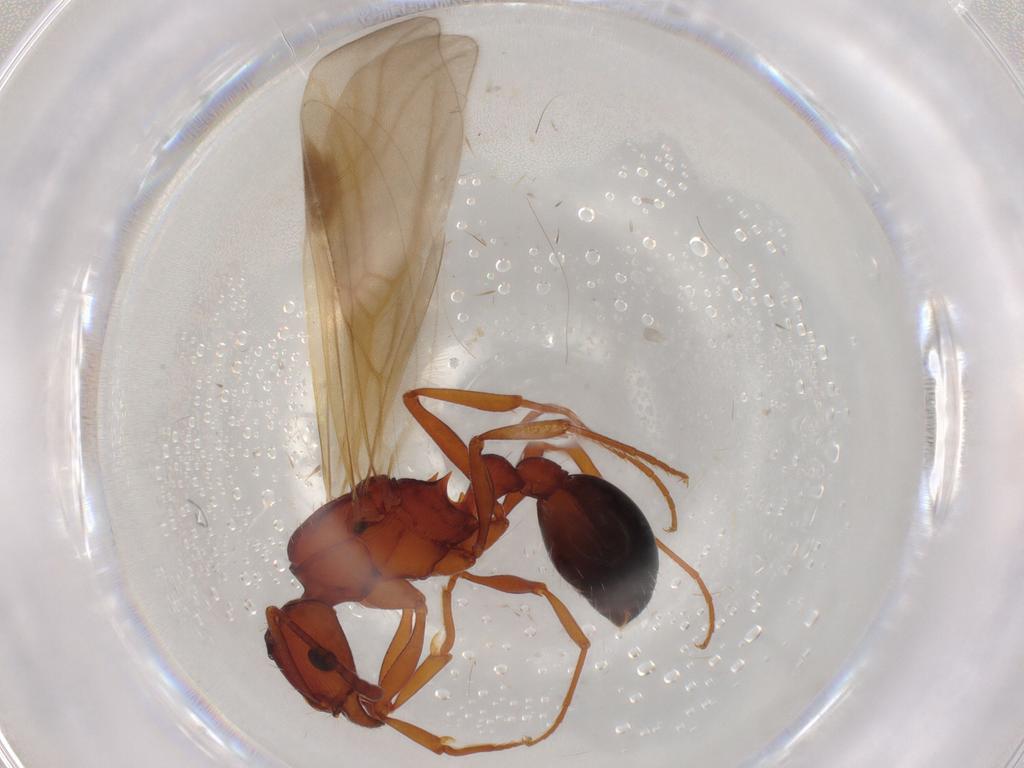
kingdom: Animalia
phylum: Arthropoda
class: Insecta
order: Hymenoptera
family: Formicidae
